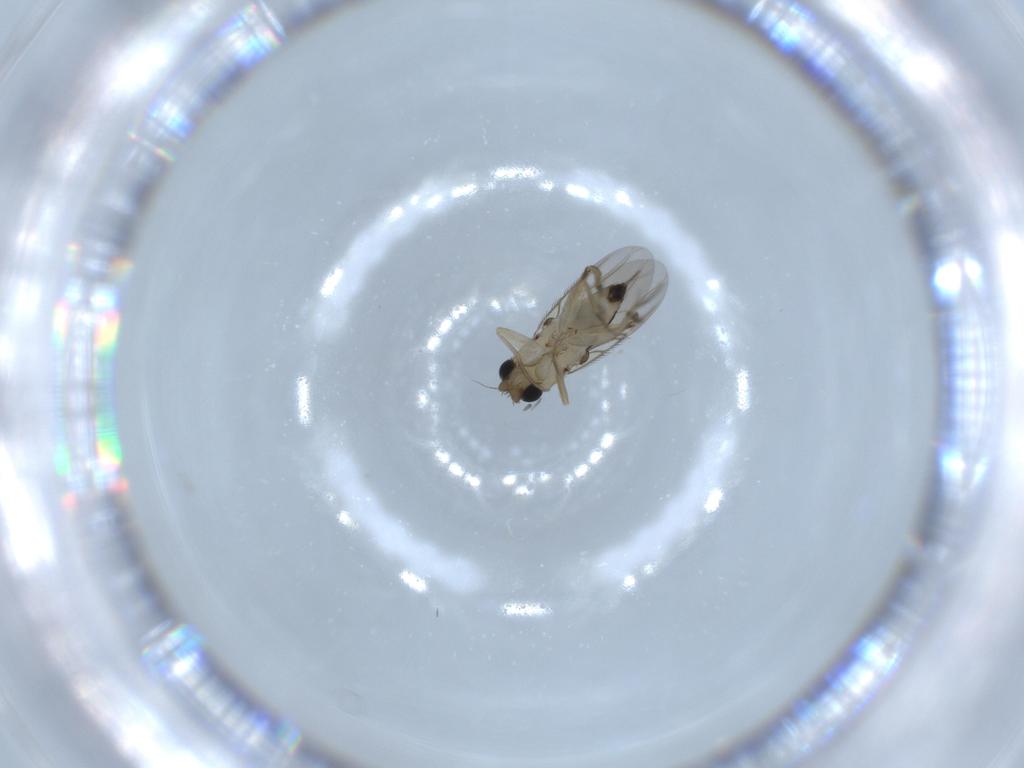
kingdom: Animalia
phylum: Arthropoda
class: Insecta
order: Diptera
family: Phoridae
